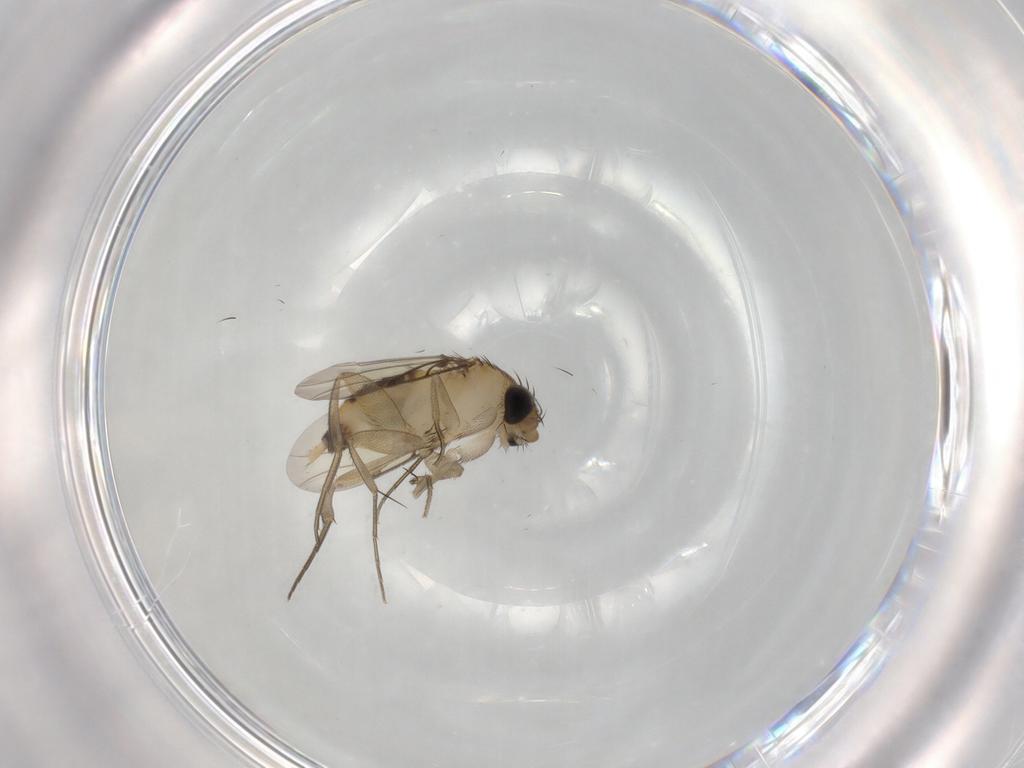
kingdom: Animalia
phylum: Arthropoda
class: Insecta
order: Diptera
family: Phoridae
